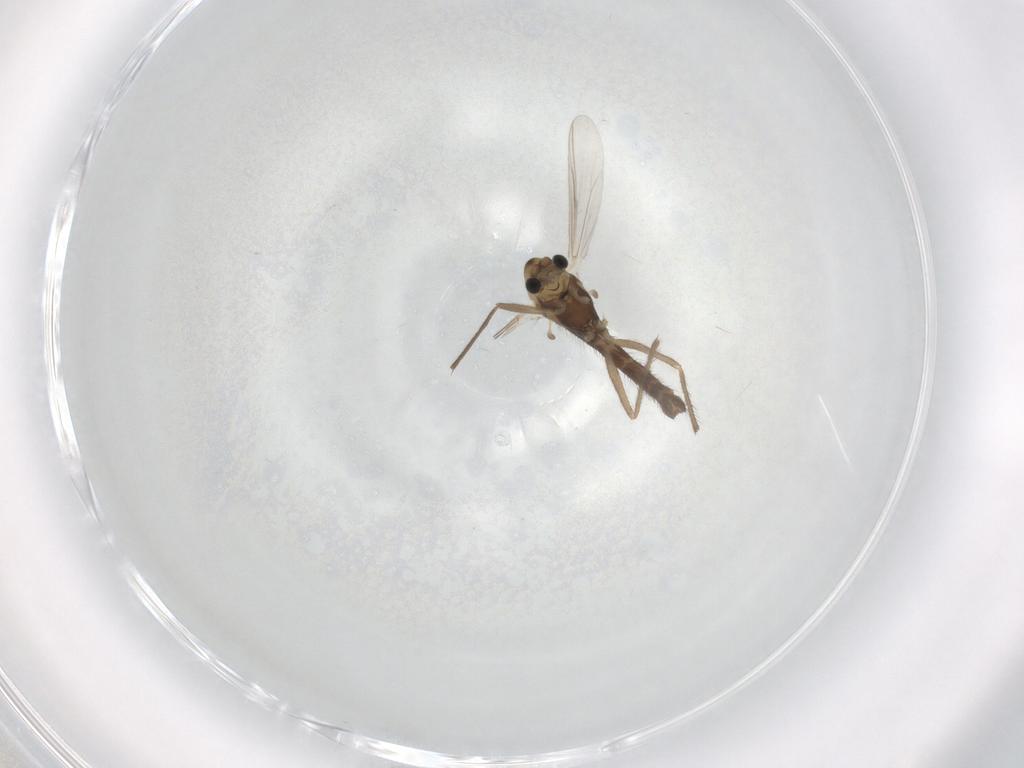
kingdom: Animalia
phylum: Arthropoda
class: Insecta
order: Diptera
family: Chironomidae
